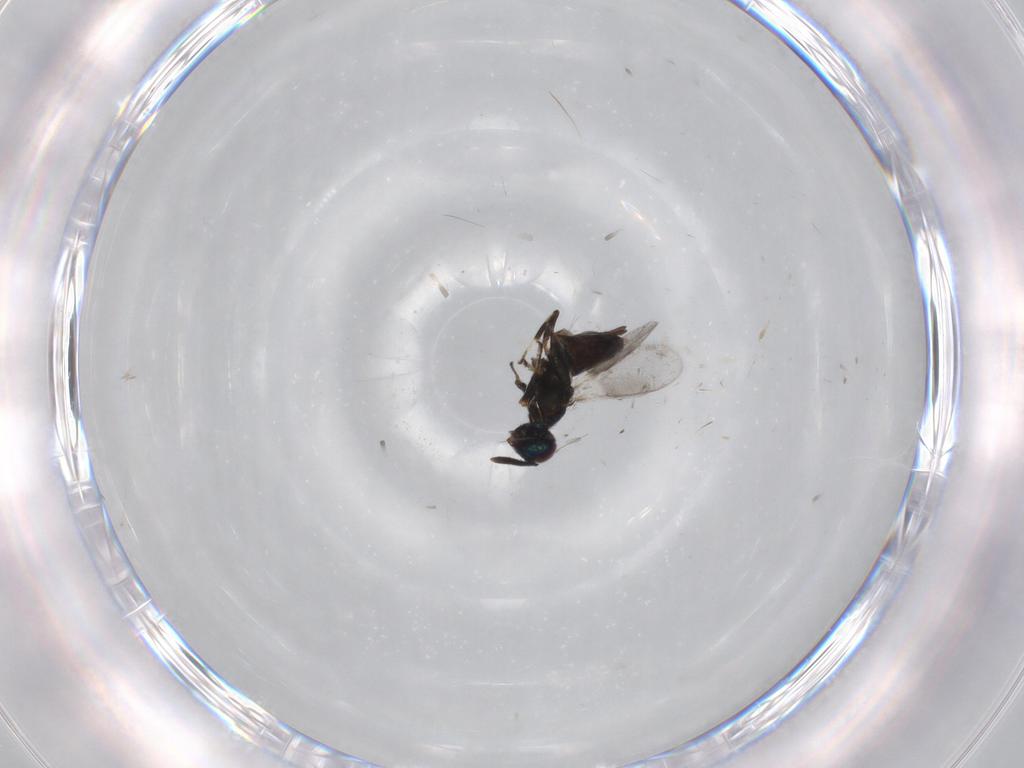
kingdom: Animalia
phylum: Arthropoda
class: Insecta
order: Hymenoptera
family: Eupelmidae
